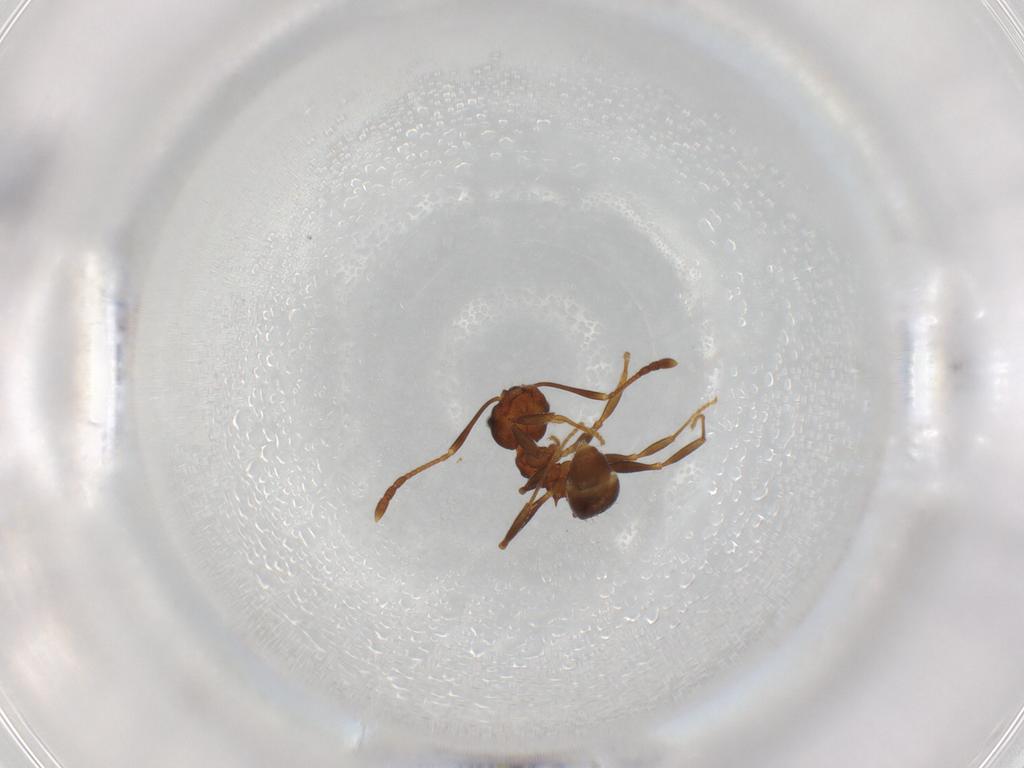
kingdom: Animalia
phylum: Arthropoda
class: Insecta
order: Hymenoptera
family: Formicidae
